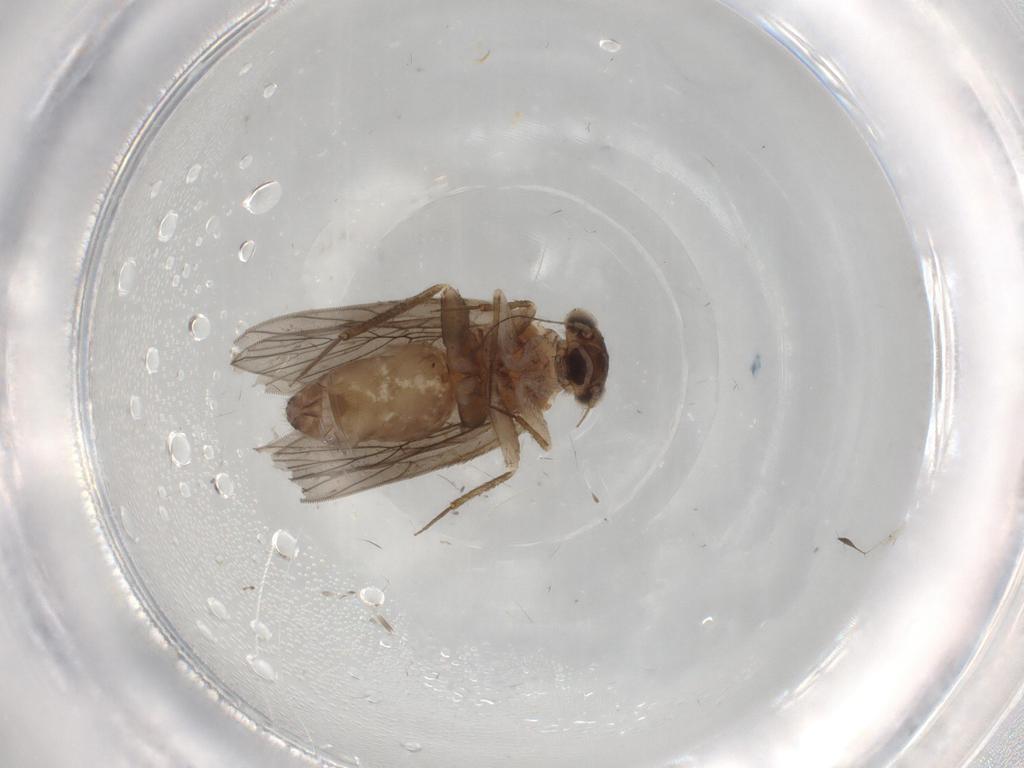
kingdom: Animalia
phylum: Arthropoda
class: Insecta
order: Psocodea
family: Lepidopsocidae
